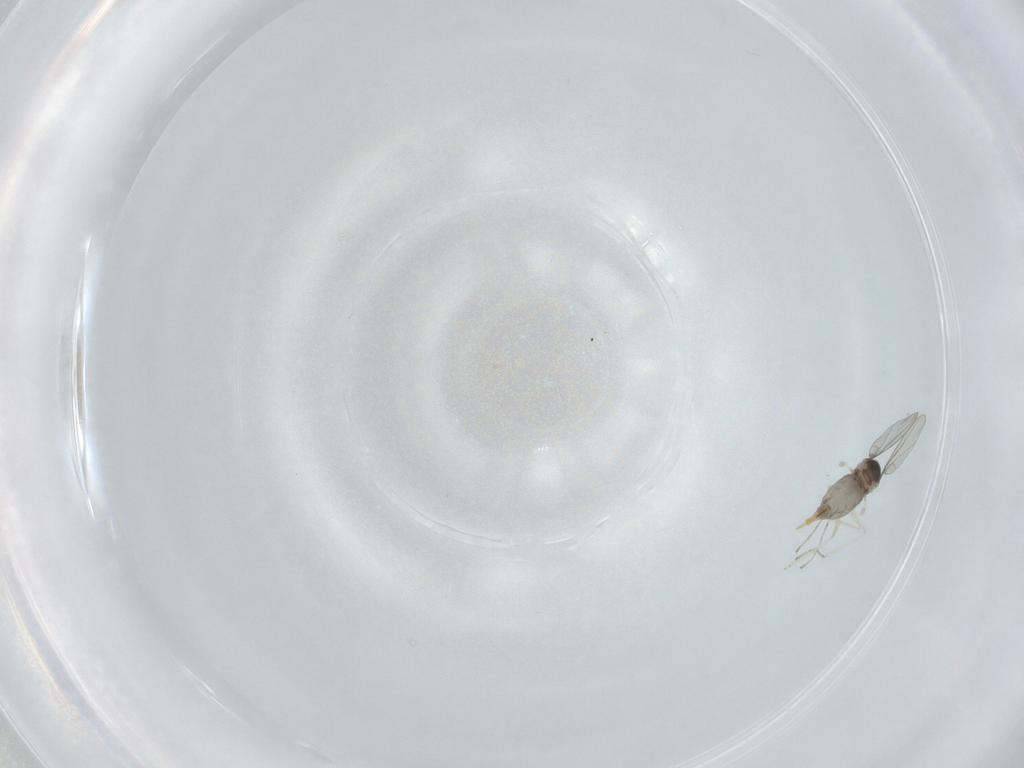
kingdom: Animalia
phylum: Arthropoda
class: Insecta
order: Diptera
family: Cecidomyiidae
